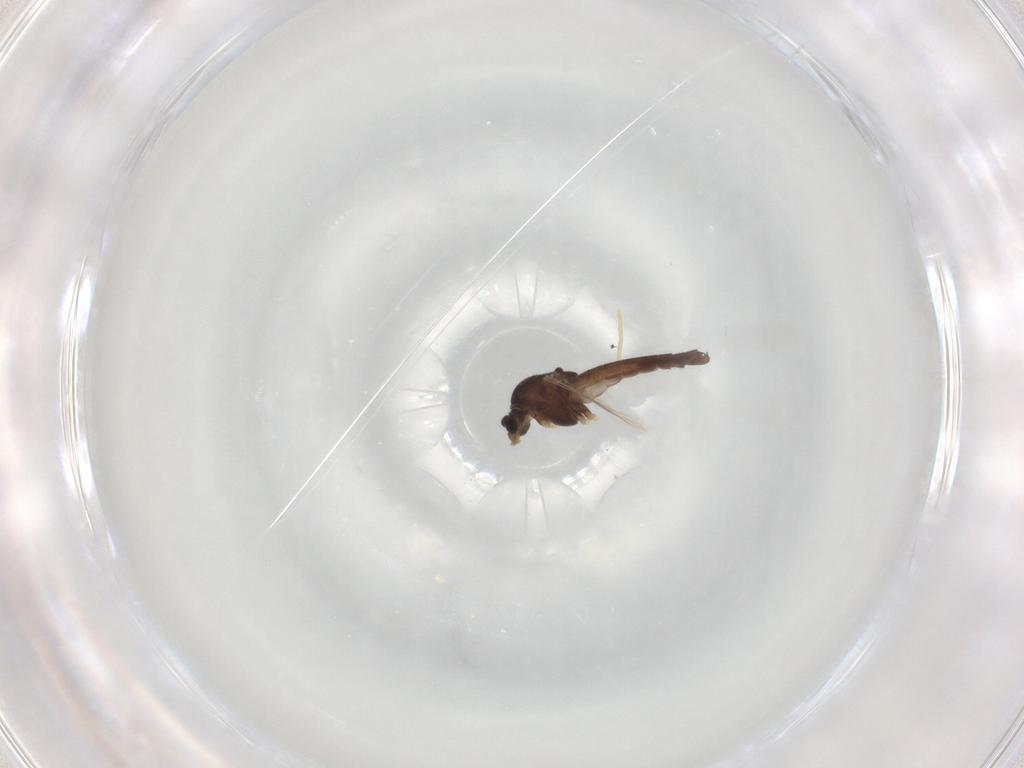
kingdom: Animalia
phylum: Arthropoda
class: Insecta
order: Diptera
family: Chironomidae
